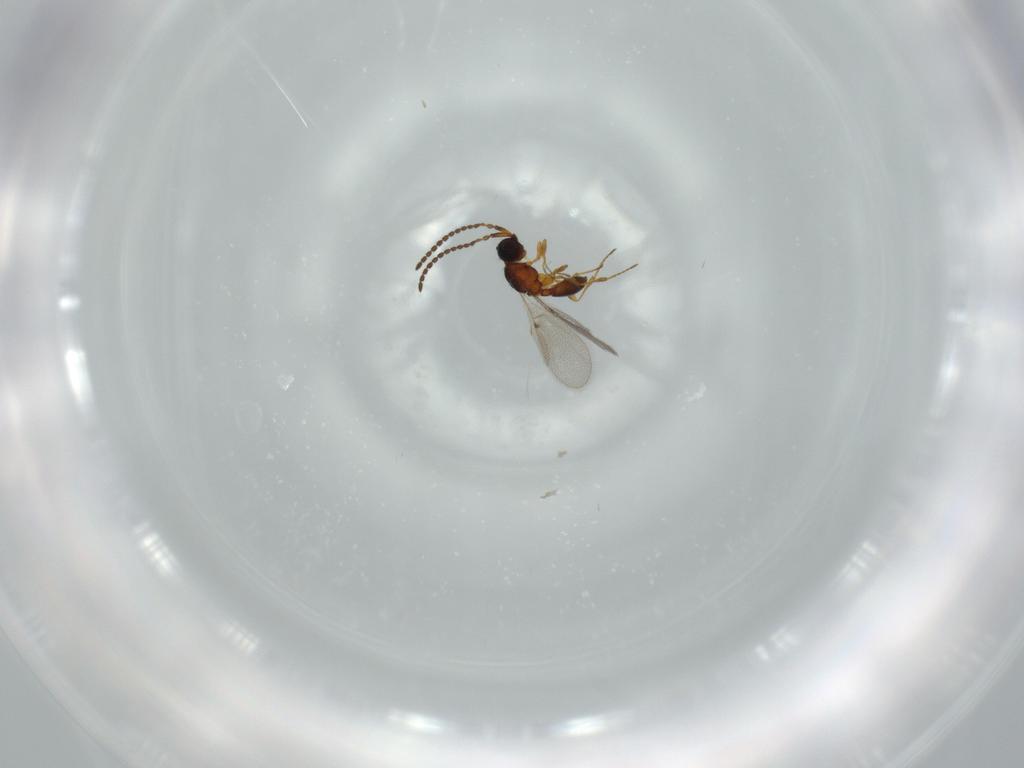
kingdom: Animalia
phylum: Arthropoda
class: Insecta
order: Hymenoptera
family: Diapriidae
